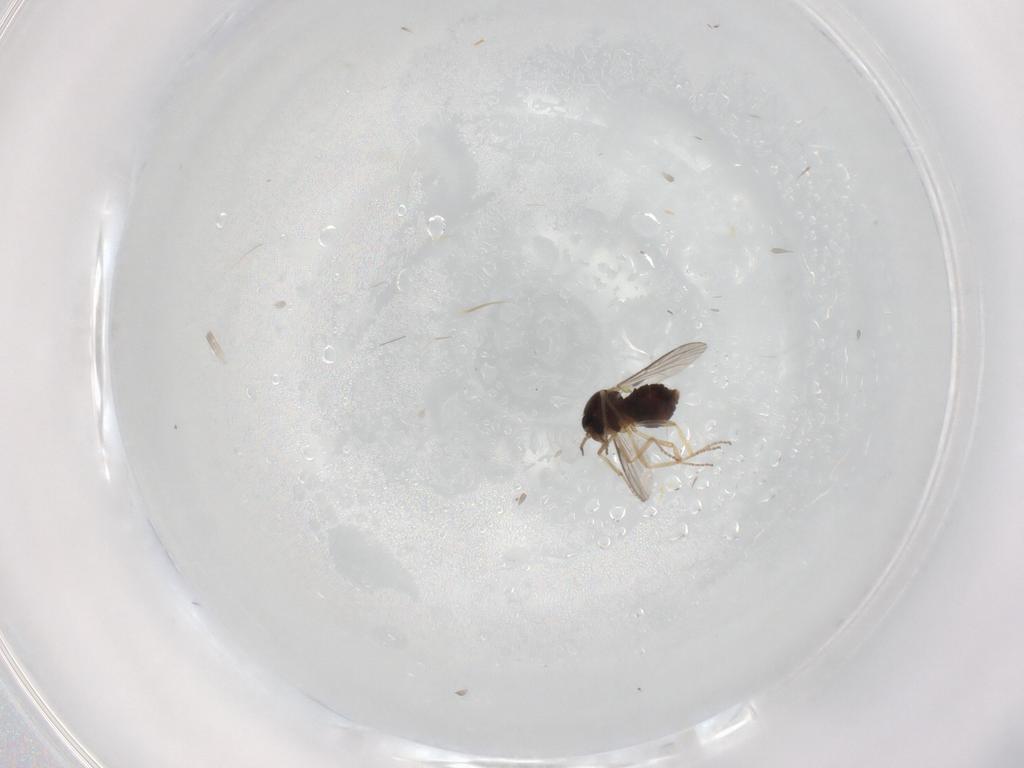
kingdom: Animalia
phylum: Arthropoda
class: Insecta
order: Diptera
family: Ceratopogonidae
